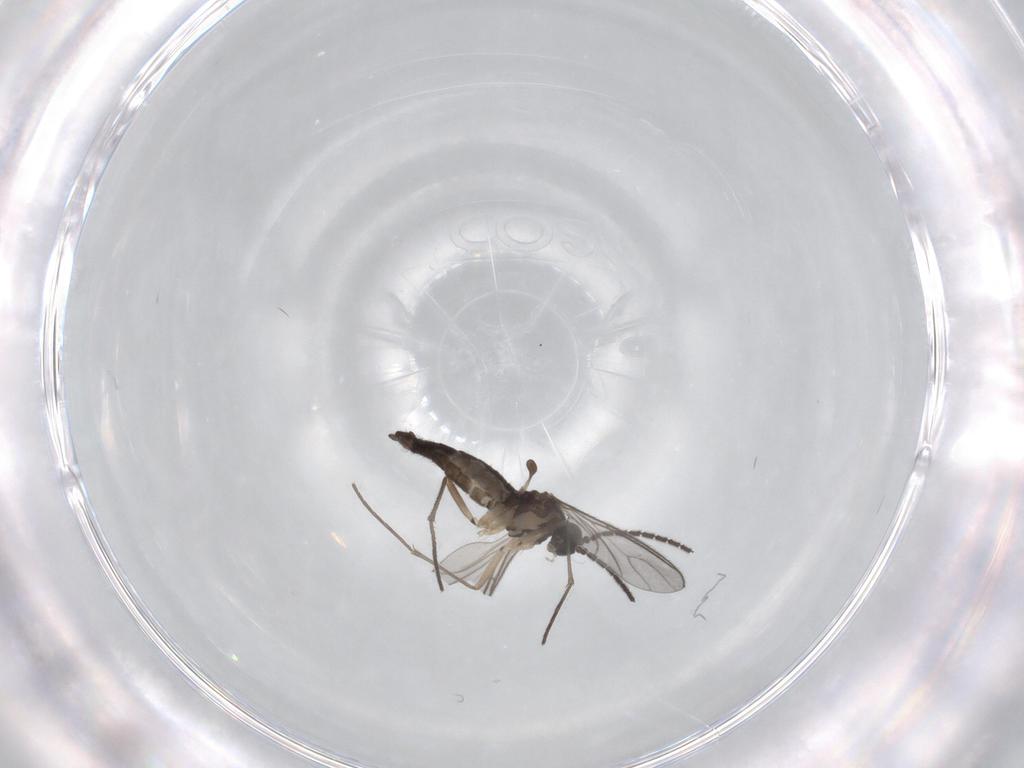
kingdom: Animalia
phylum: Arthropoda
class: Insecta
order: Diptera
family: Sciaridae
